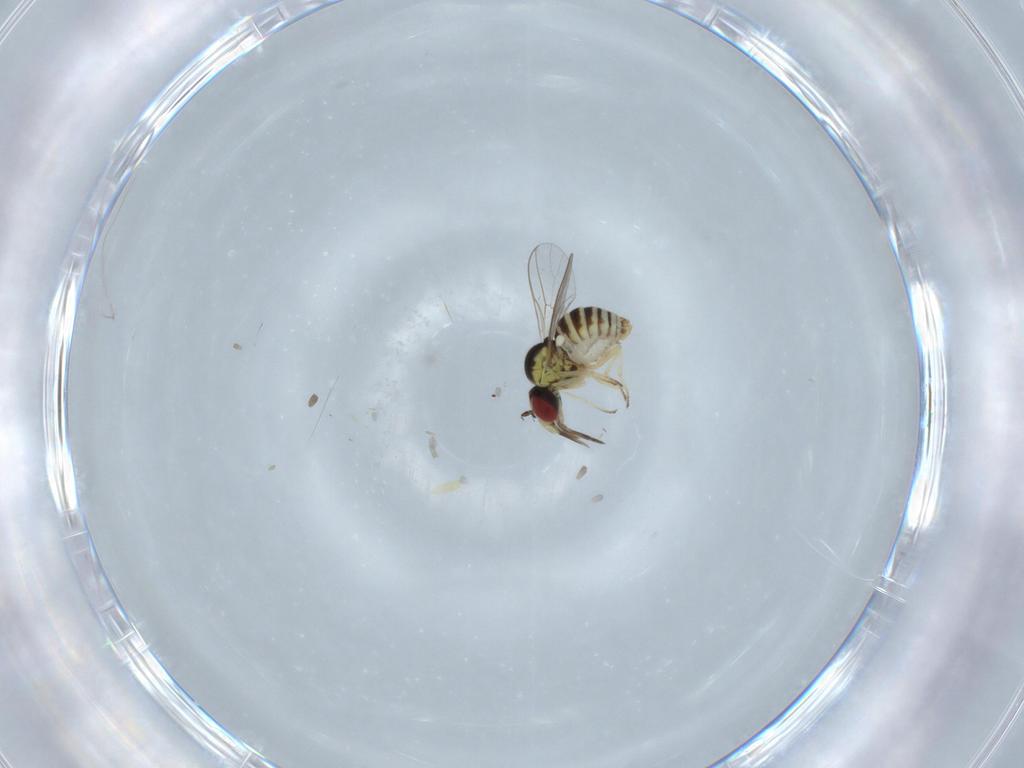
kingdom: Animalia
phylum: Arthropoda
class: Insecta
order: Diptera
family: Bombyliidae
